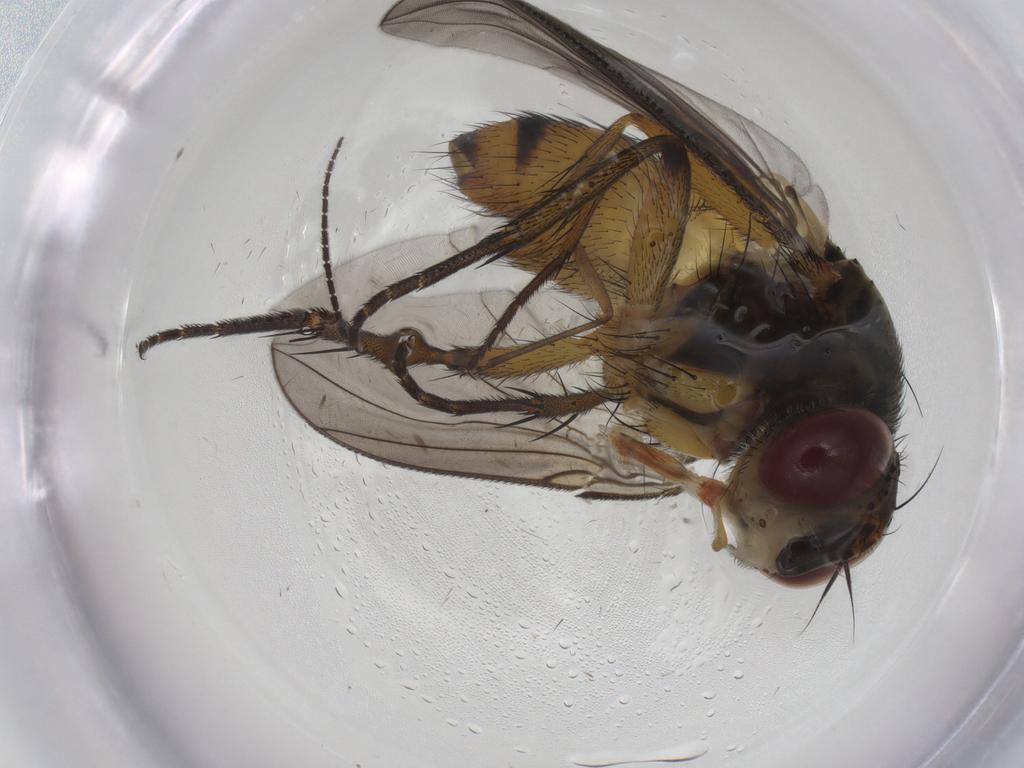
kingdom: Animalia
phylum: Arthropoda
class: Insecta
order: Diptera
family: Muscidae
